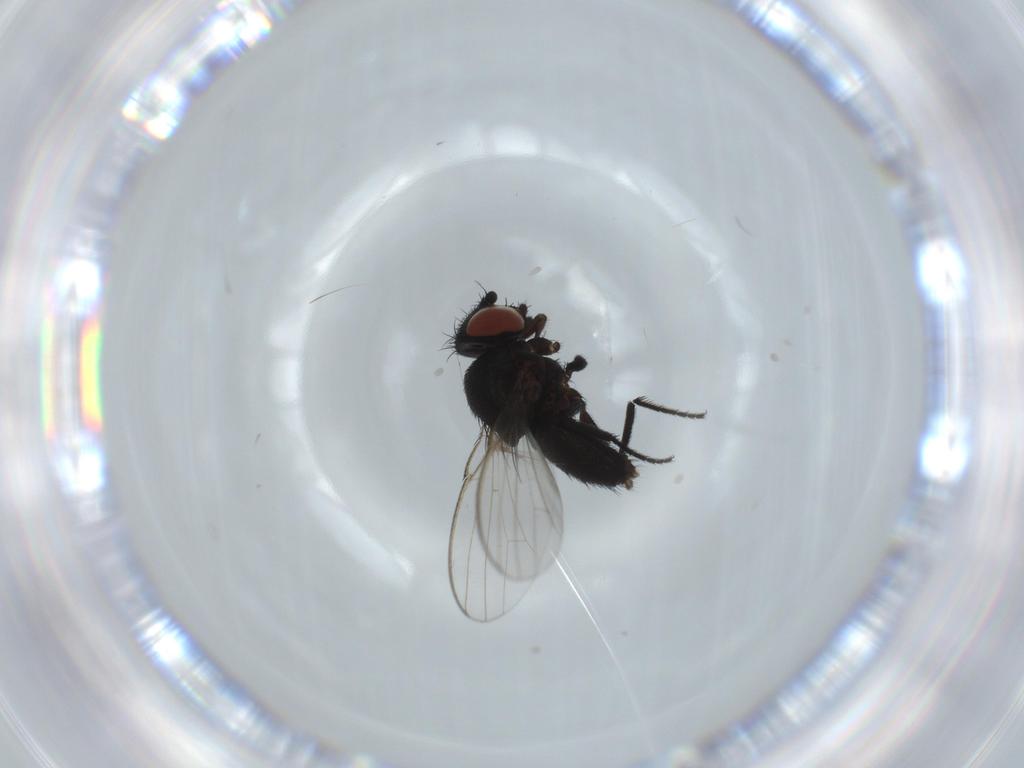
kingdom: Animalia
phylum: Arthropoda
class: Insecta
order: Diptera
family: Milichiidae
